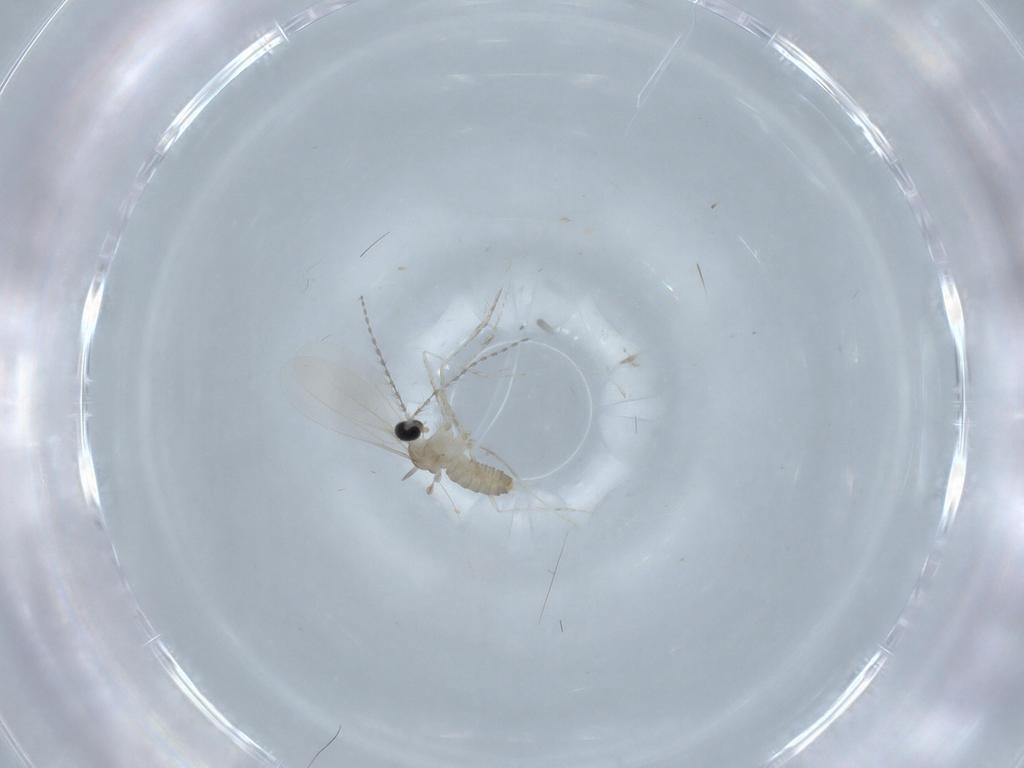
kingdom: Animalia
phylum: Arthropoda
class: Insecta
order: Diptera
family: Cecidomyiidae
